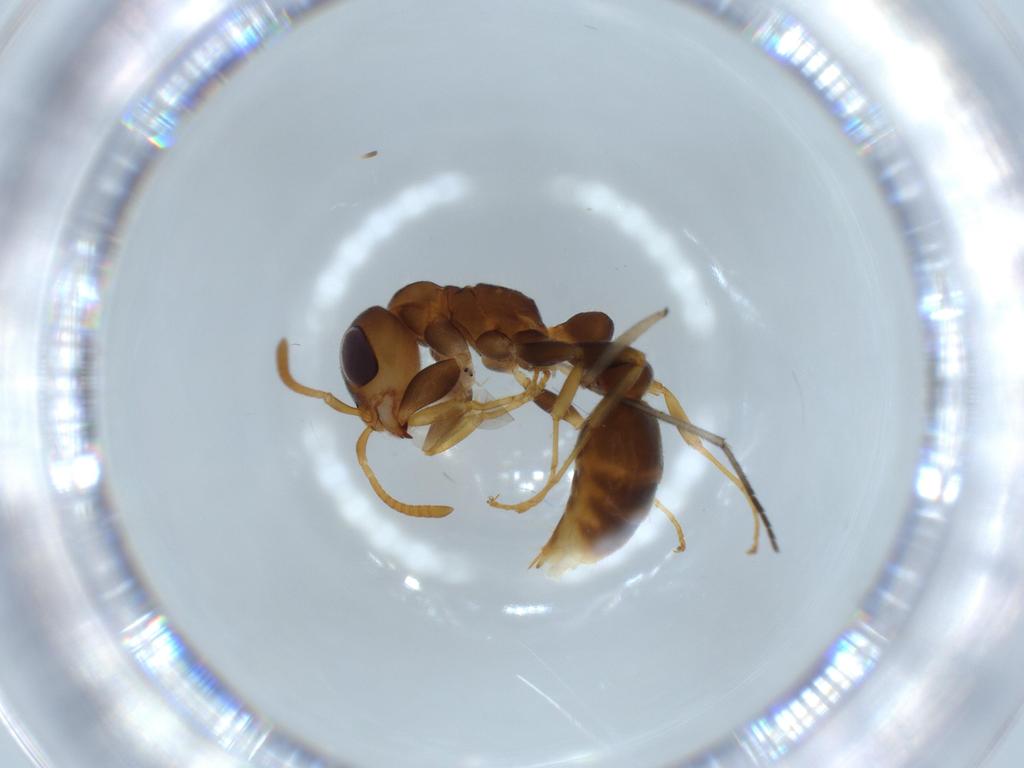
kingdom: Animalia
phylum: Arthropoda
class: Insecta
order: Hymenoptera
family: Formicidae
